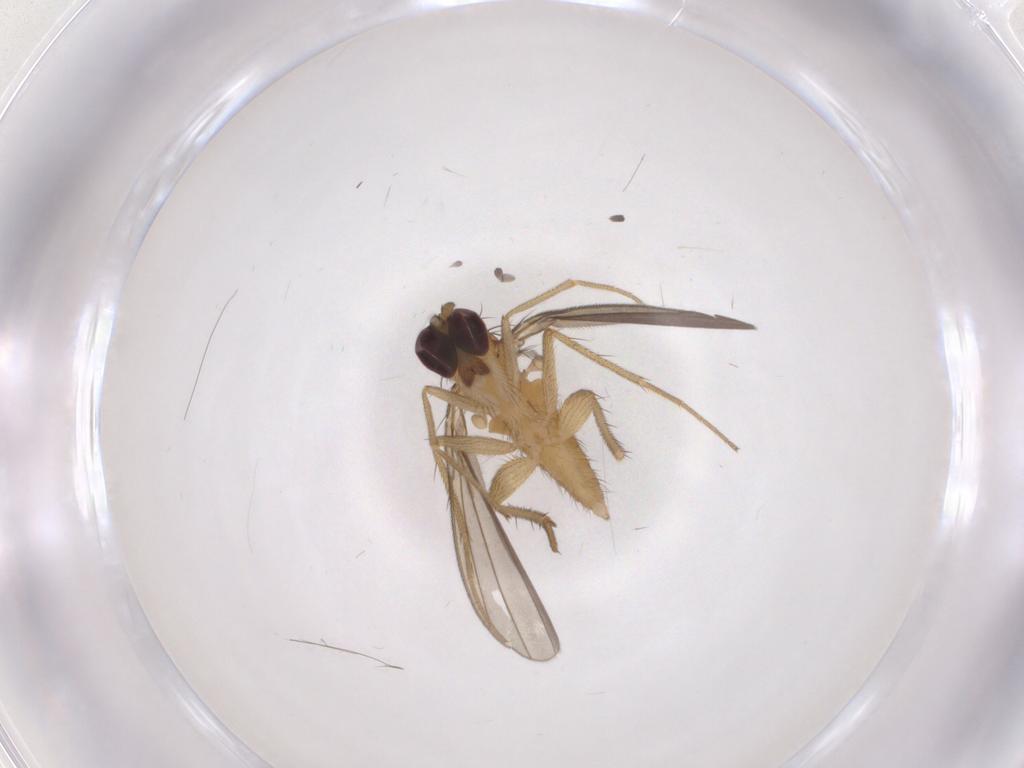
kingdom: Animalia
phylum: Arthropoda
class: Insecta
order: Diptera
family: Dolichopodidae
